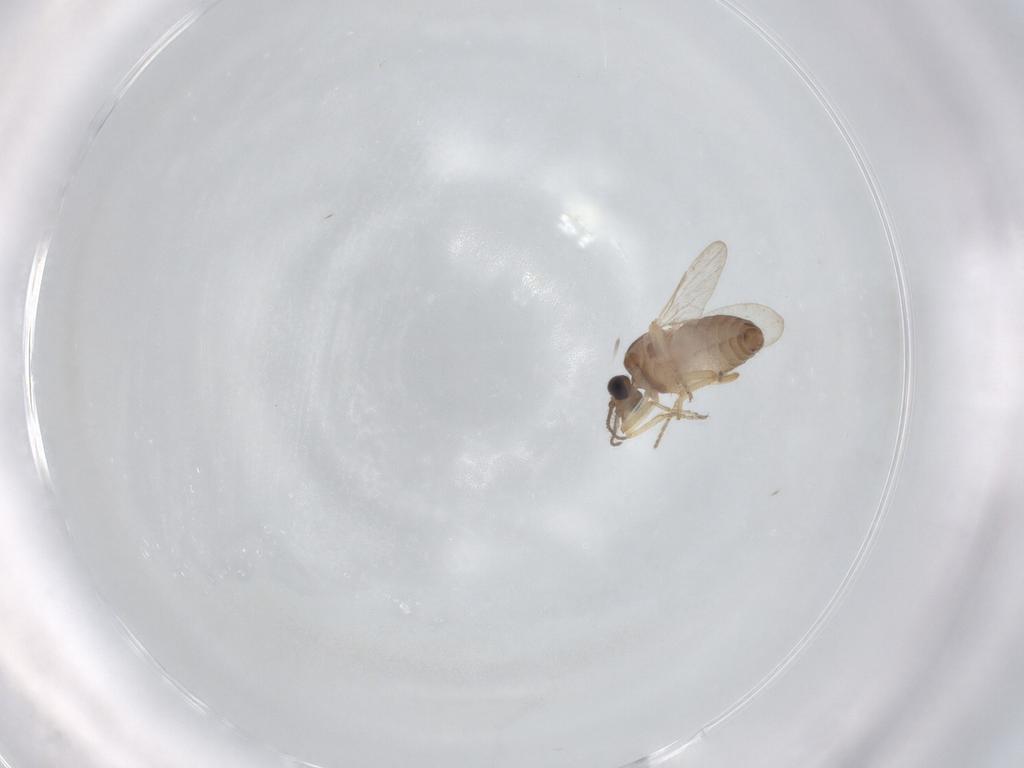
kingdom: Animalia
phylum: Arthropoda
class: Insecta
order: Diptera
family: Ceratopogonidae
